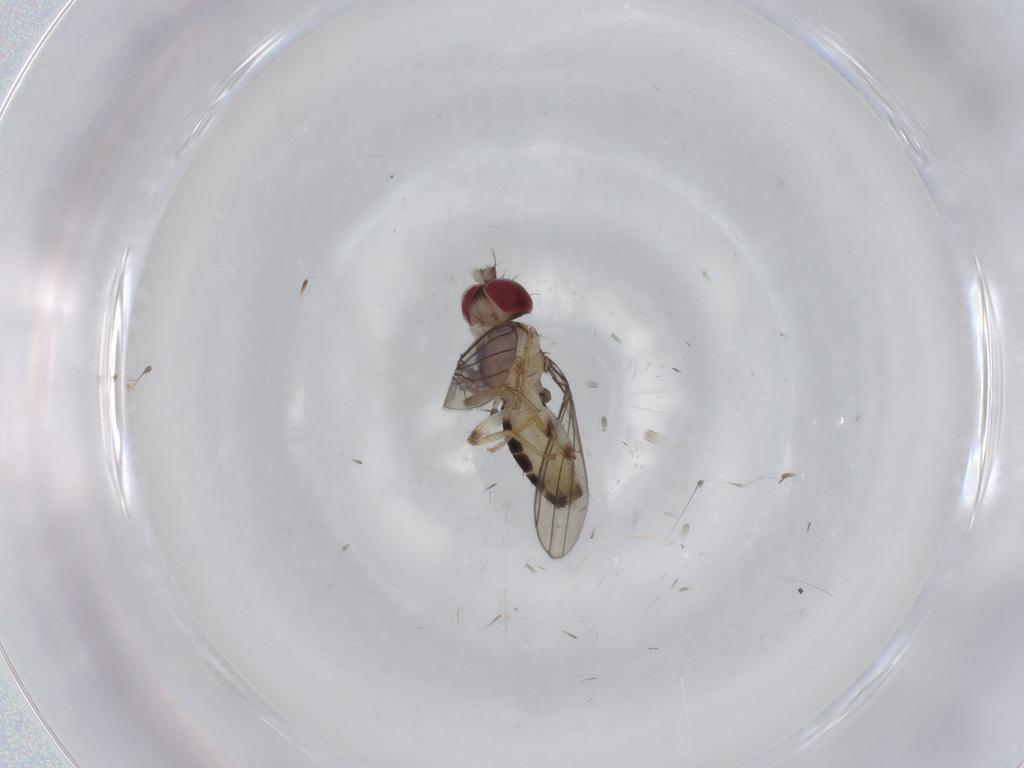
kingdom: Animalia
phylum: Arthropoda
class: Insecta
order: Diptera
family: Anthomyzidae
